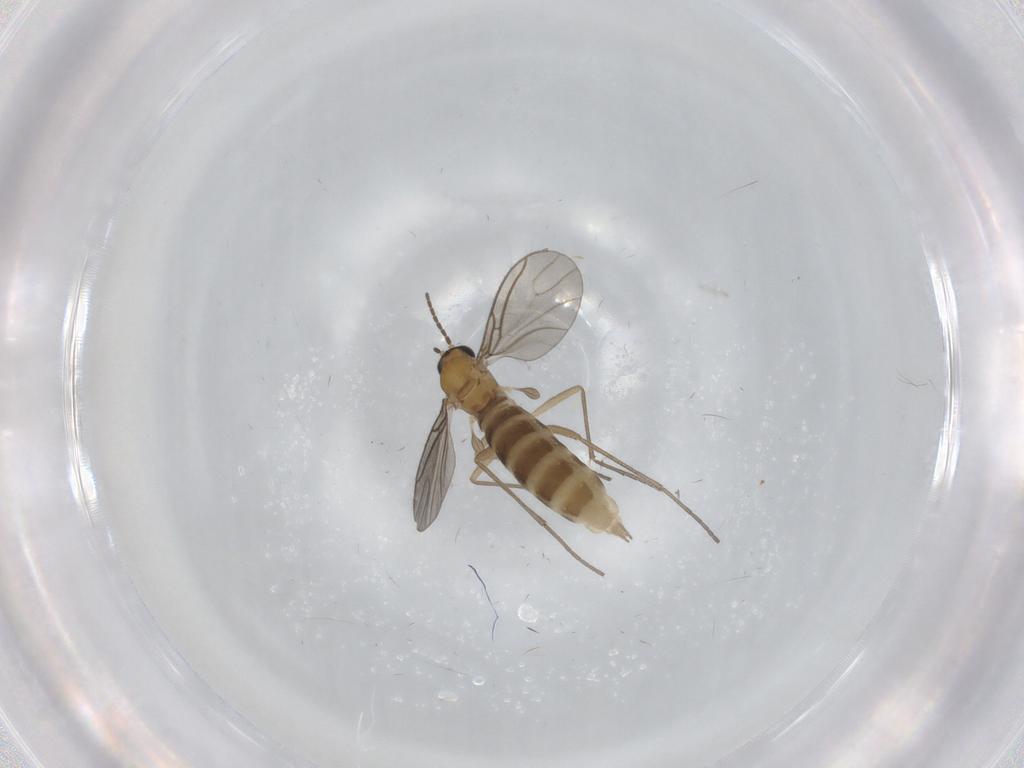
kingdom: Animalia
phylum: Arthropoda
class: Insecta
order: Diptera
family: Sciaridae
